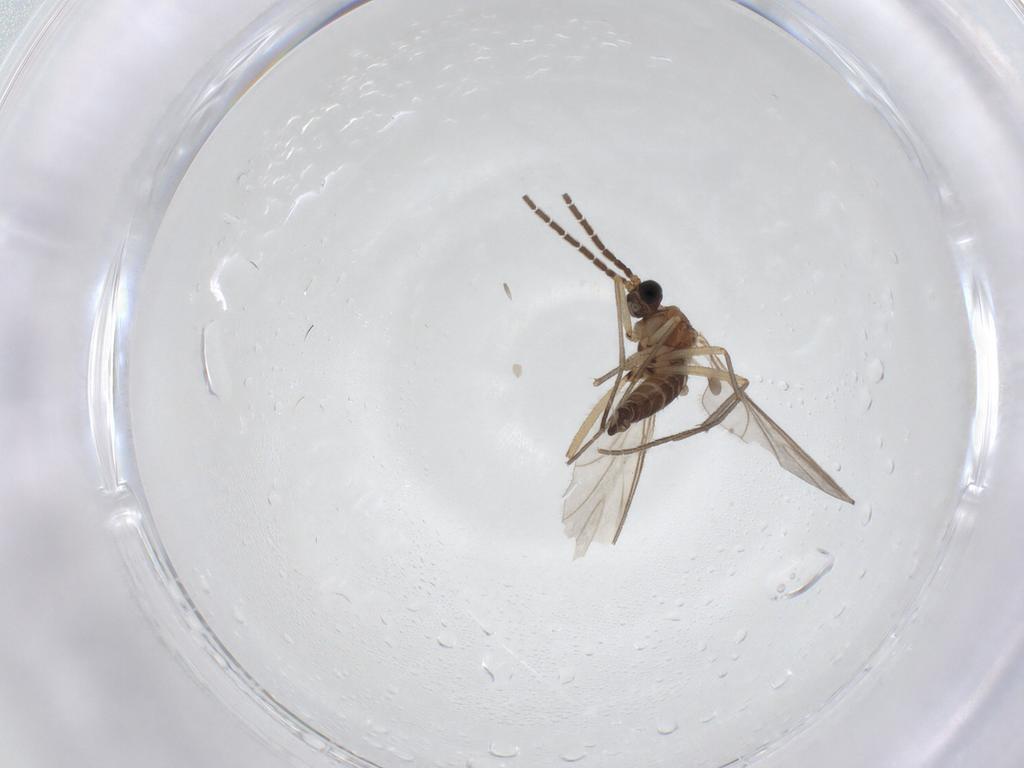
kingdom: Animalia
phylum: Arthropoda
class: Insecta
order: Diptera
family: Sciaridae
